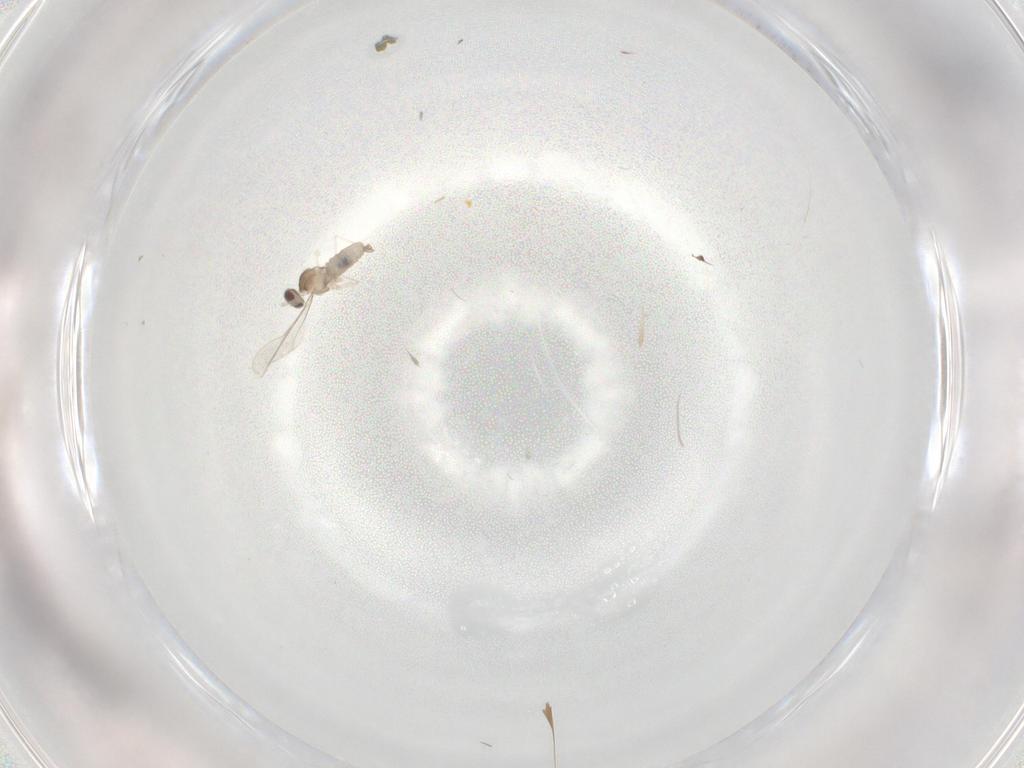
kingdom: Animalia
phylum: Arthropoda
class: Insecta
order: Diptera
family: Cecidomyiidae
